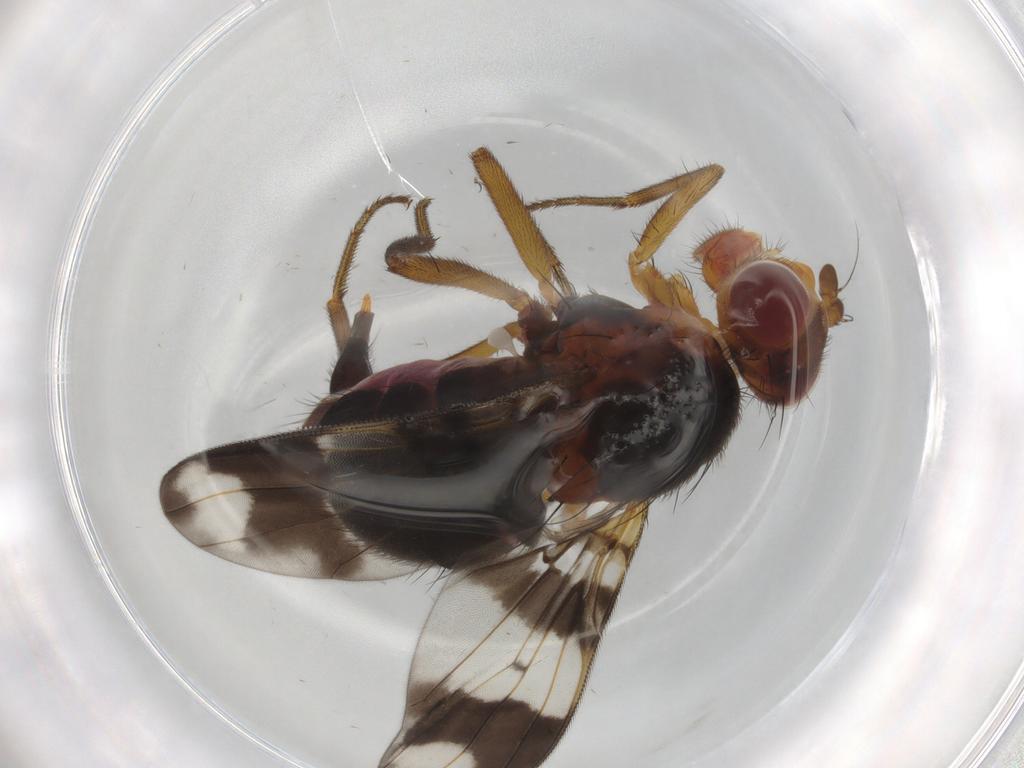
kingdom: Animalia
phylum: Arthropoda
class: Insecta
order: Diptera
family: Richardiidae
